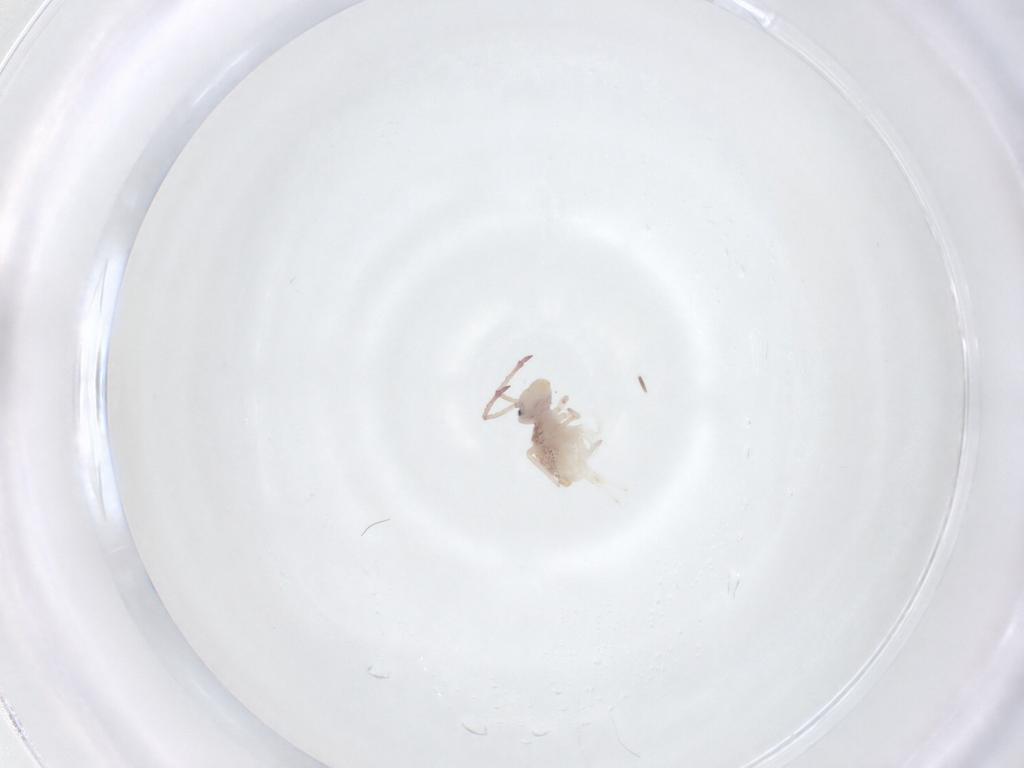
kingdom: Animalia
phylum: Arthropoda
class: Collembola
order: Symphypleona
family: Dicyrtomidae
